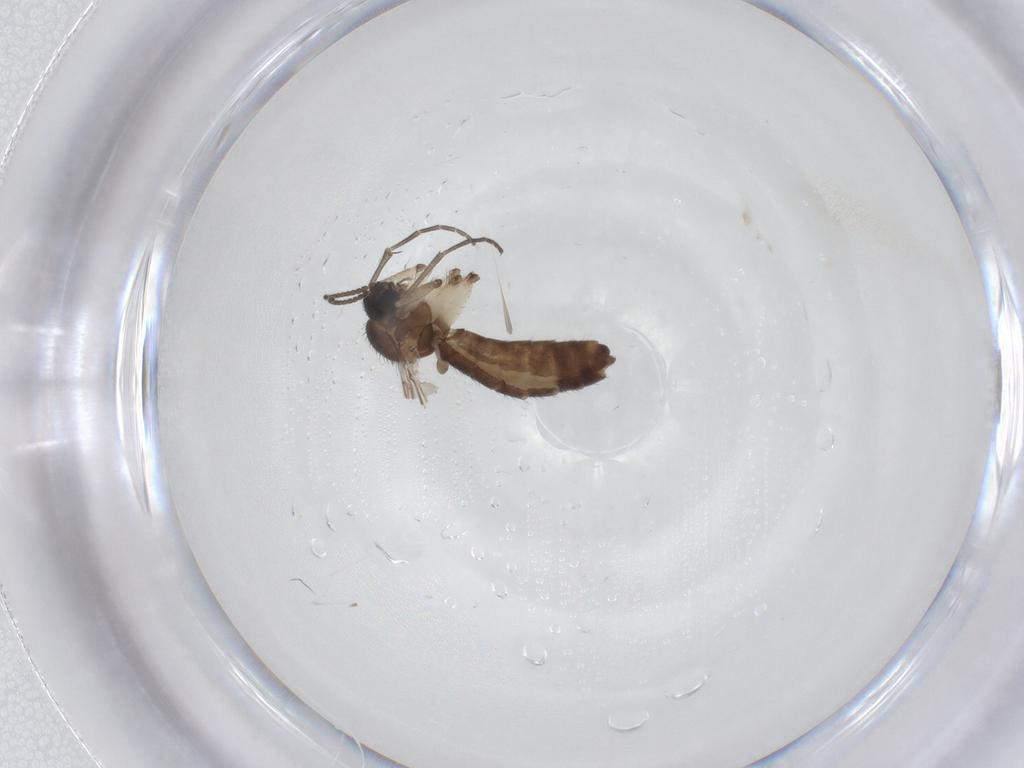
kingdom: Animalia
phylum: Arthropoda
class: Insecta
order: Diptera
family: Keroplatidae
